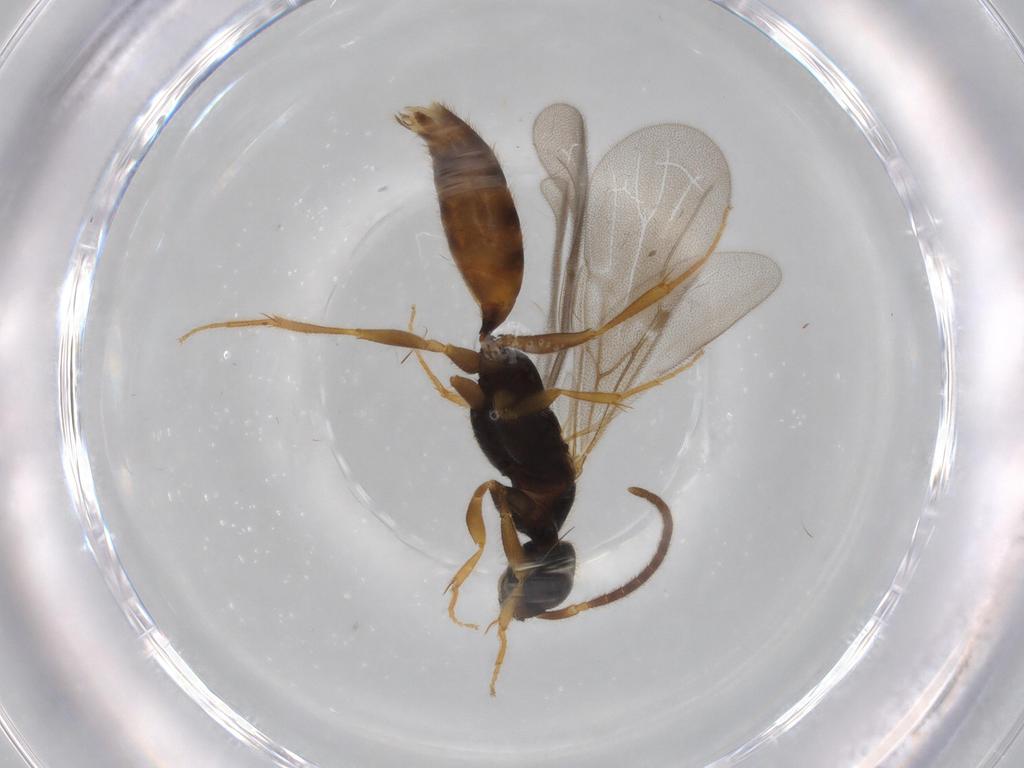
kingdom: Animalia
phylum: Arthropoda
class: Insecta
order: Hymenoptera
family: Bethylidae
